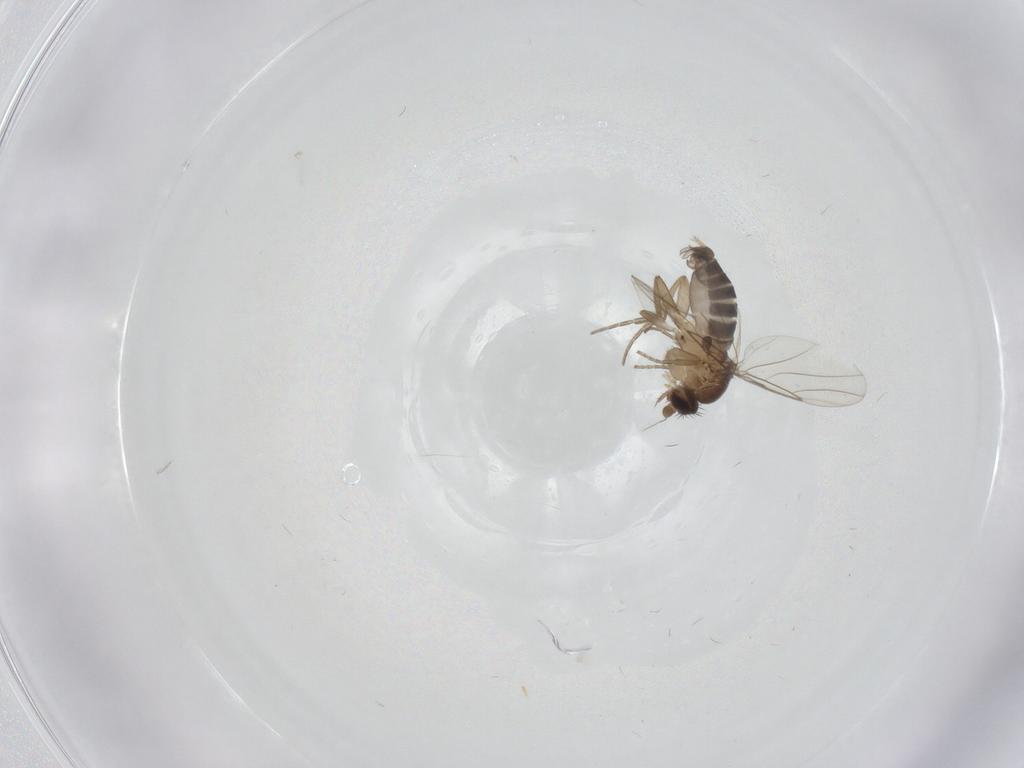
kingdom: Animalia
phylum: Arthropoda
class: Insecta
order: Diptera
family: Phoridae
